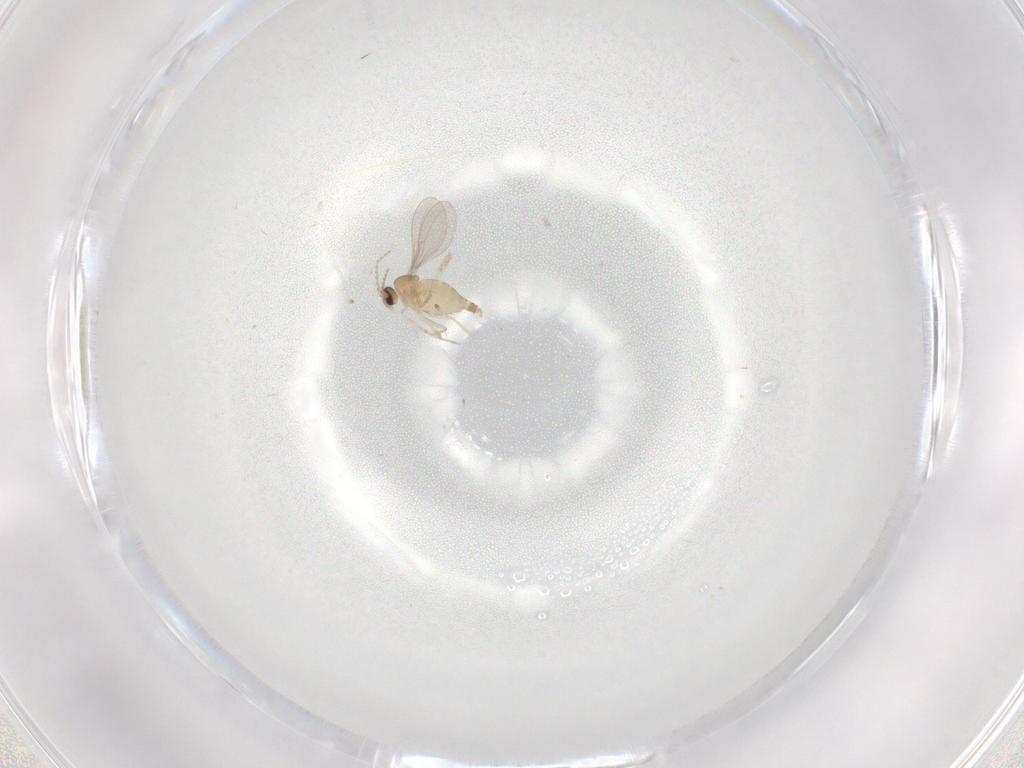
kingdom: Animalia
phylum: Arthropoda
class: Insecta
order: Diptera
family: Cecidomyiidae
